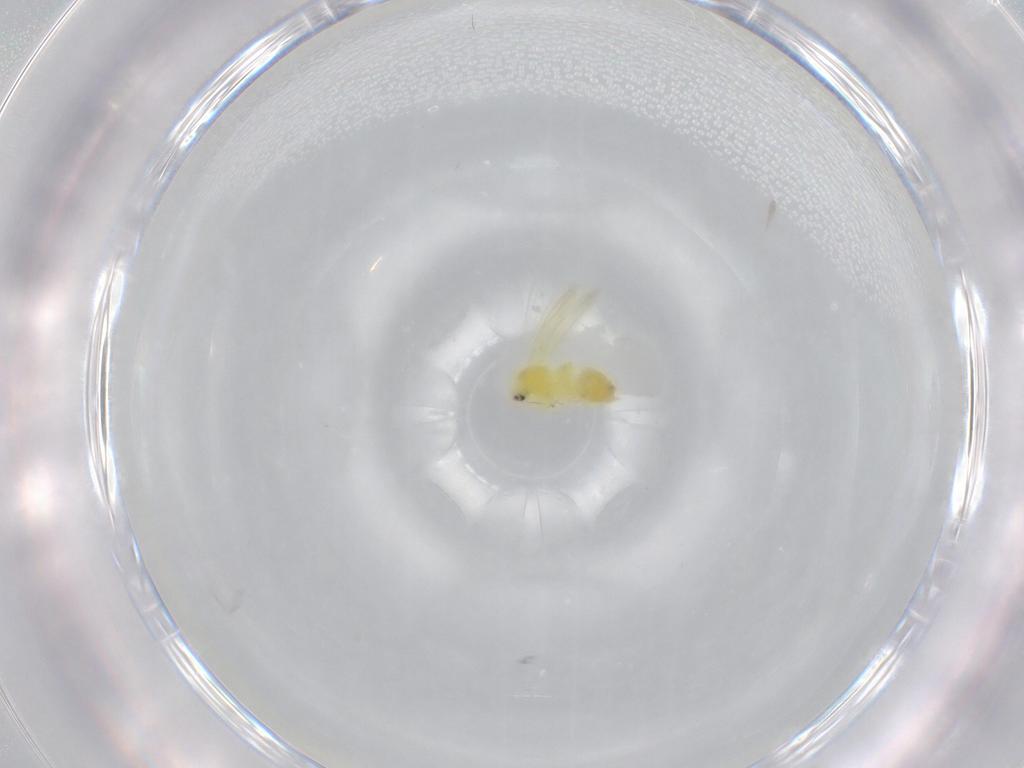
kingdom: Animalia
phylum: Arthropoda
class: Insecta
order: Hemiptera
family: Aleyrodidae
